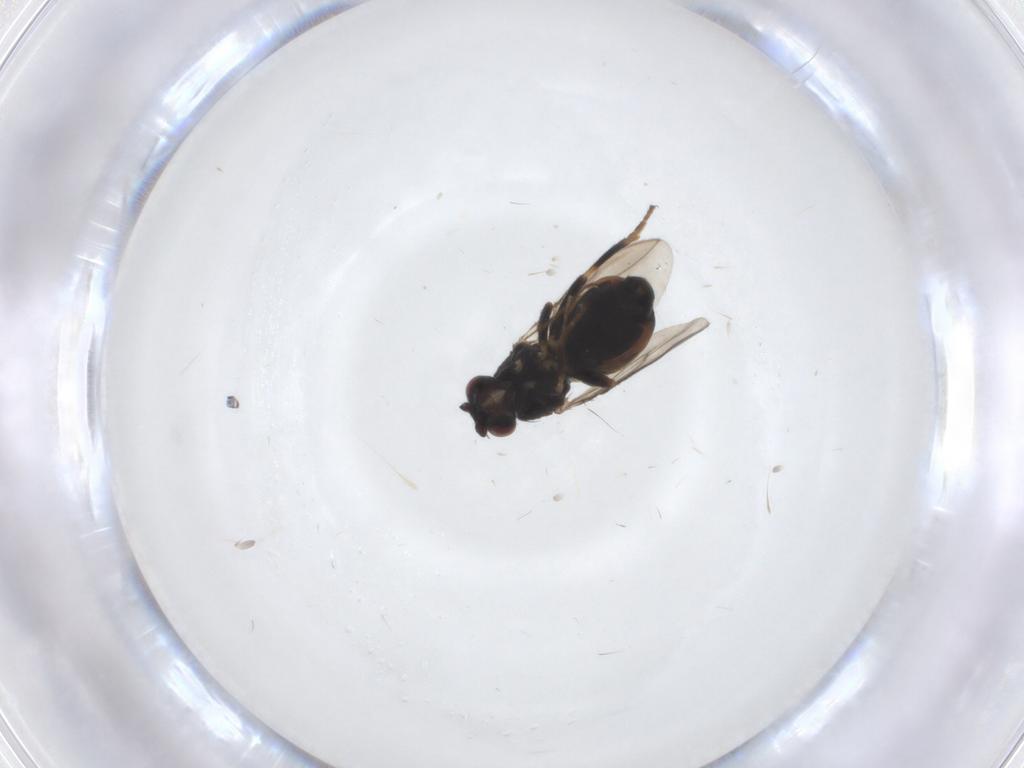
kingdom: Animalia
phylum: Arthropoda
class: Insecta
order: Diptera
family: Sphaeroceridae
